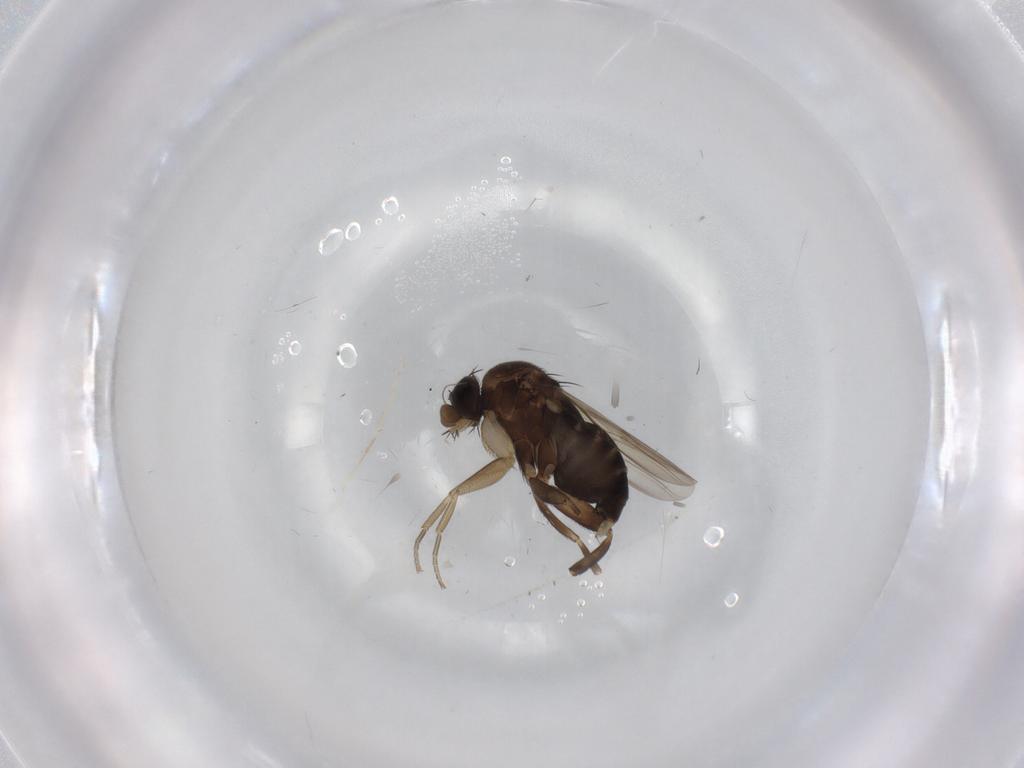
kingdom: Animalia
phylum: Arthropoda
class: Insecta
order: Diptera
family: Phoridae
